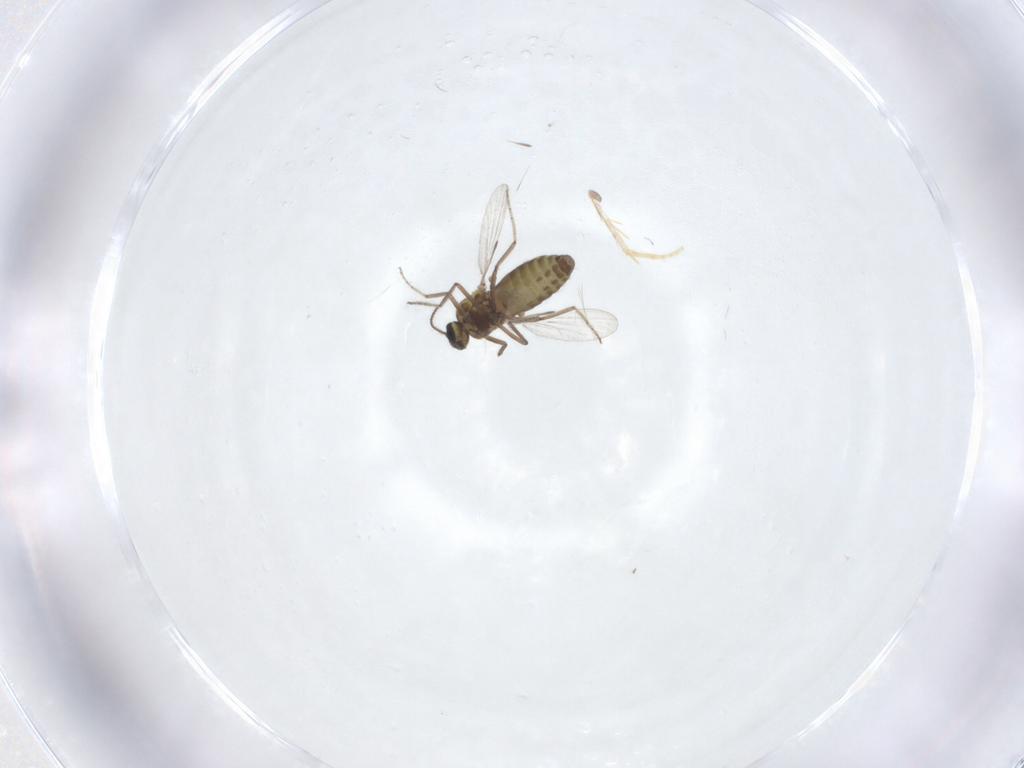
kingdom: Animalia
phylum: Arthropoda
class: Insecta
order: Diptera
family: Ceratopogonidae
